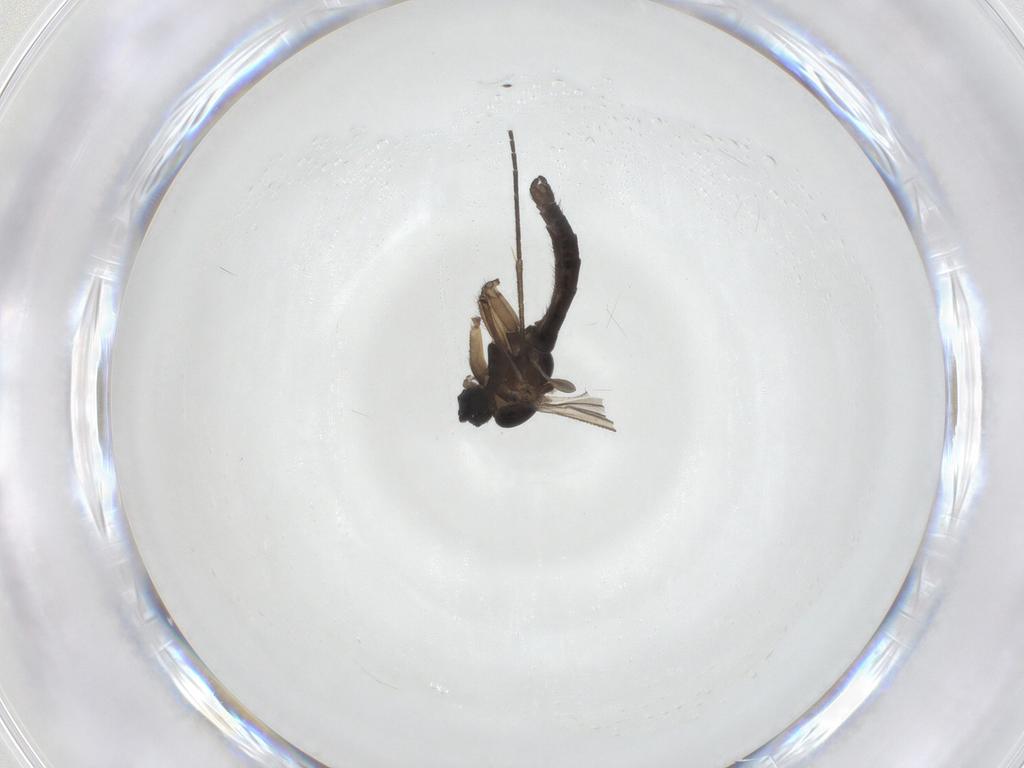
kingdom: Animalia
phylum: Arthropoda
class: Insecta
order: Diptera
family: Sciaridae
